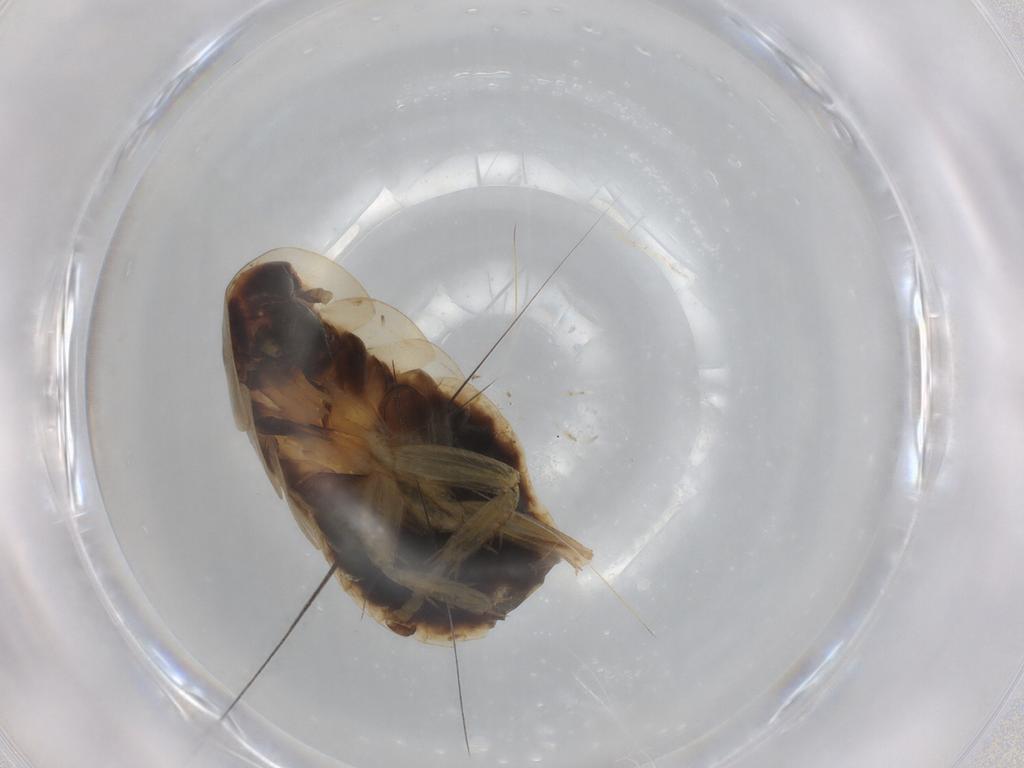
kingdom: Animalia
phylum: Arthropoda
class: Insecta
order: Blattodea
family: Ectobiidae
